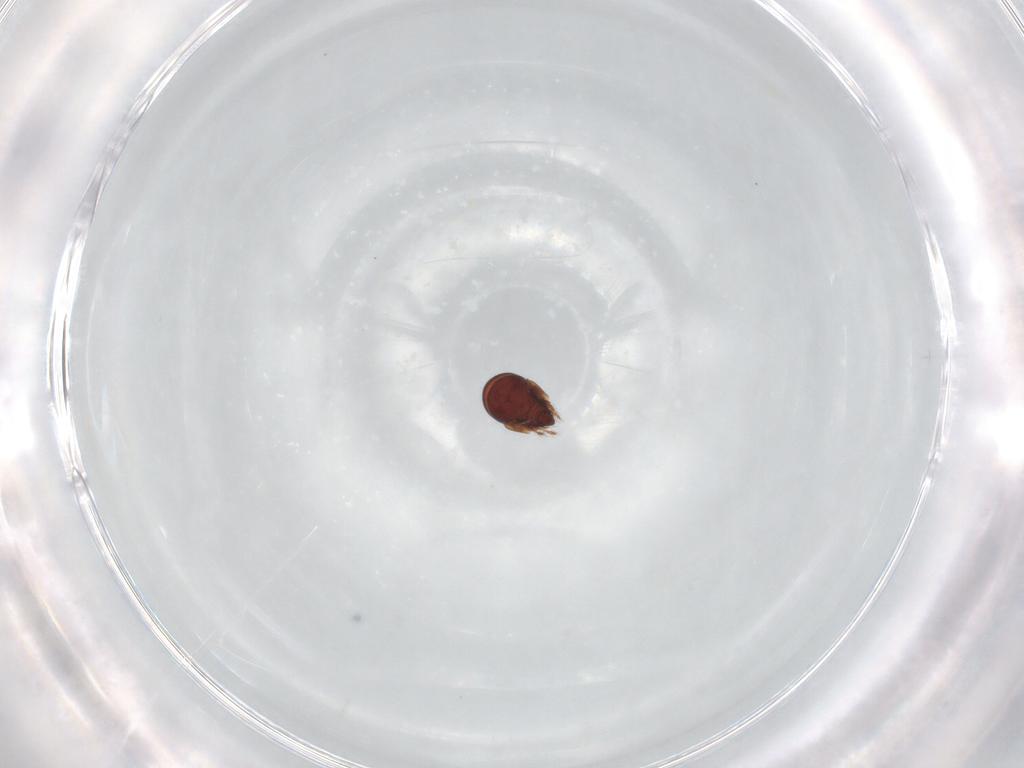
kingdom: Animalia
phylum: Arthropoda
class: Arachnida
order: Sarcoptiformes
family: Ceratozetidae
